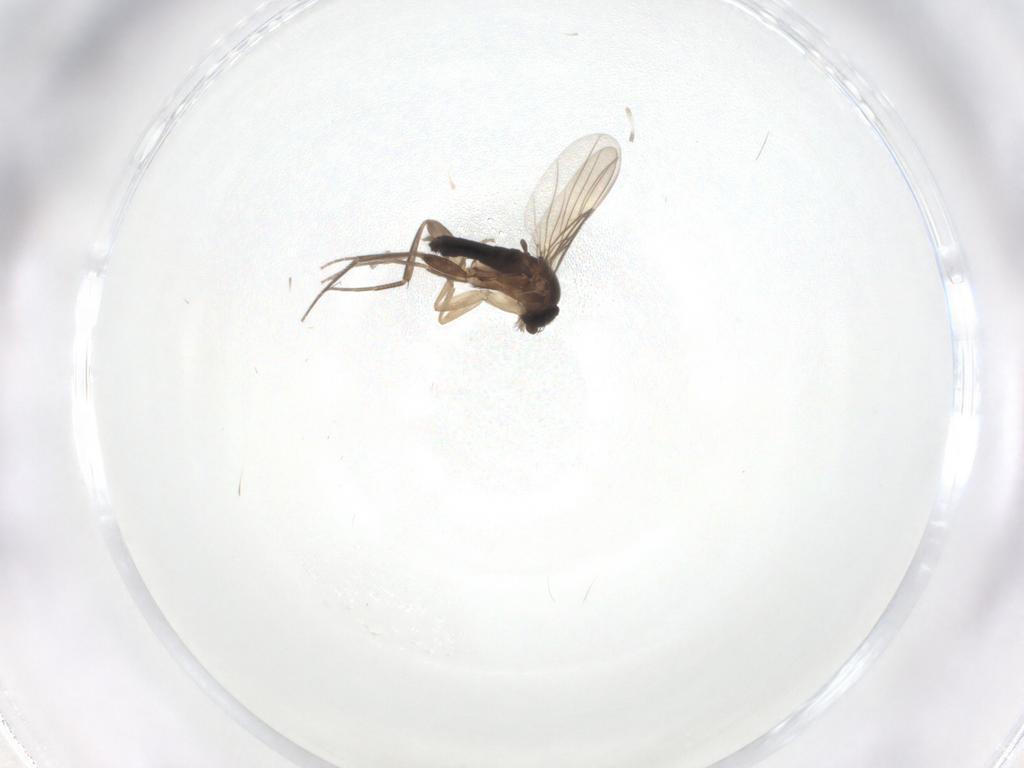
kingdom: Animalia
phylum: Arthropoda
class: Insecta
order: Diptera
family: Phoridae
